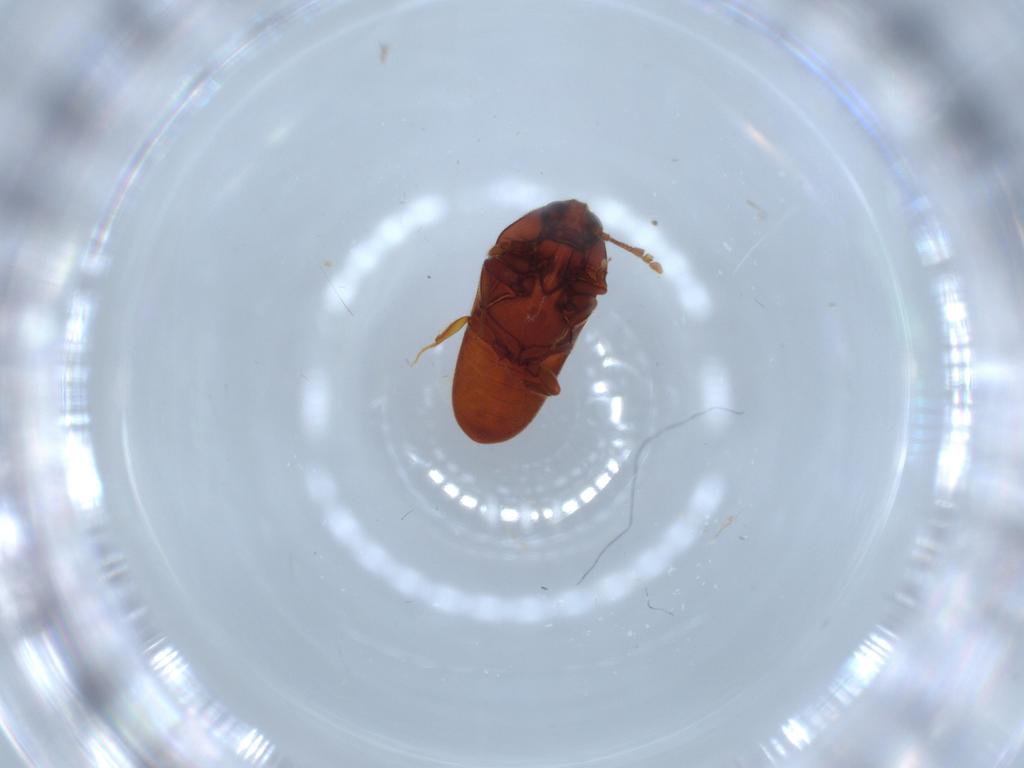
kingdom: Animalia
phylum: Arthropoda
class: Insecta
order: Coleoptera
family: Throscidae
